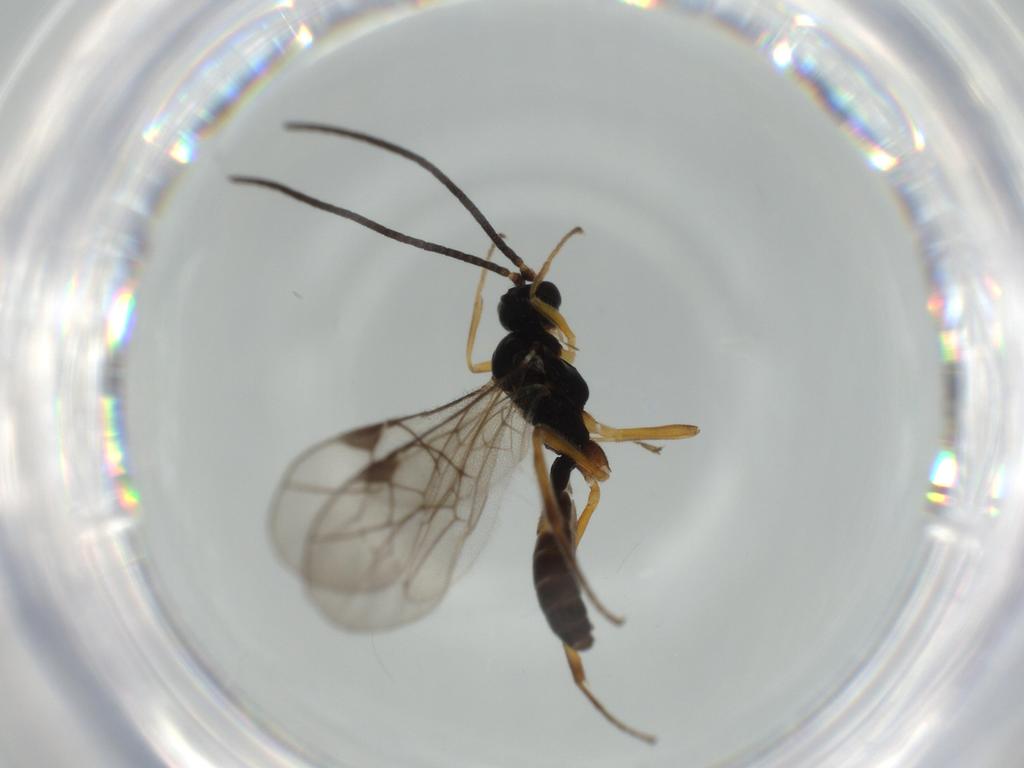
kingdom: Animalia
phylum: Arthropoda
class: Insecta
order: Hymenoptera
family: Ichneumonidae
